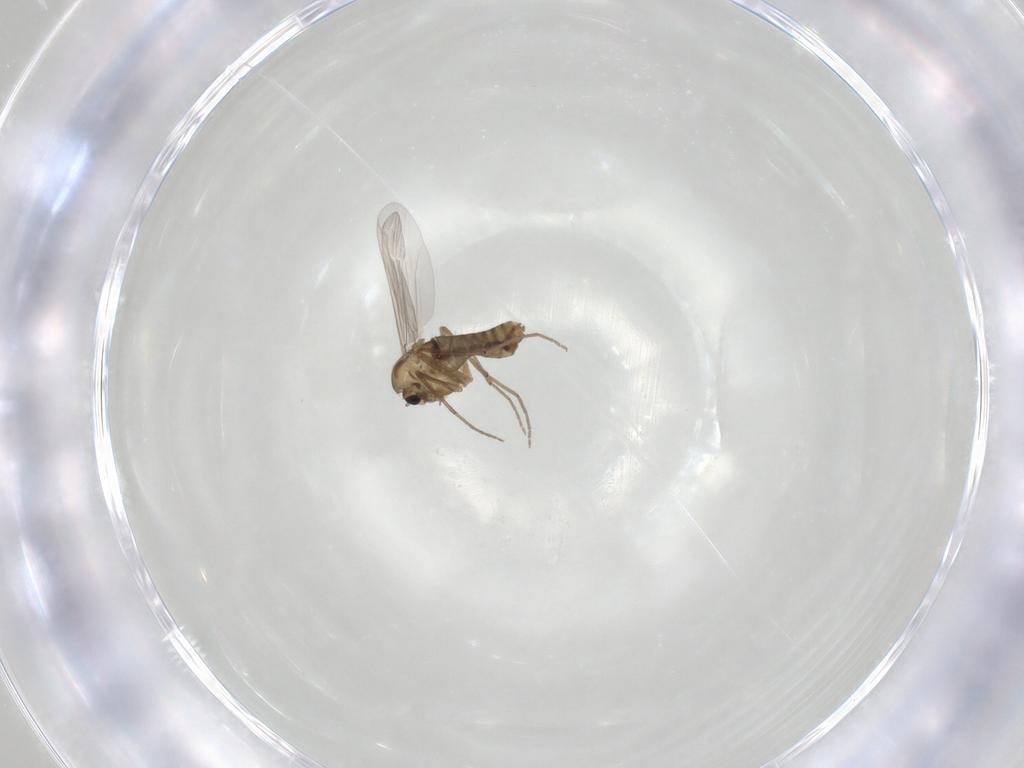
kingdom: Animalia
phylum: Arthropoda
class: Insecta
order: Diptera
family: Chironomidae
